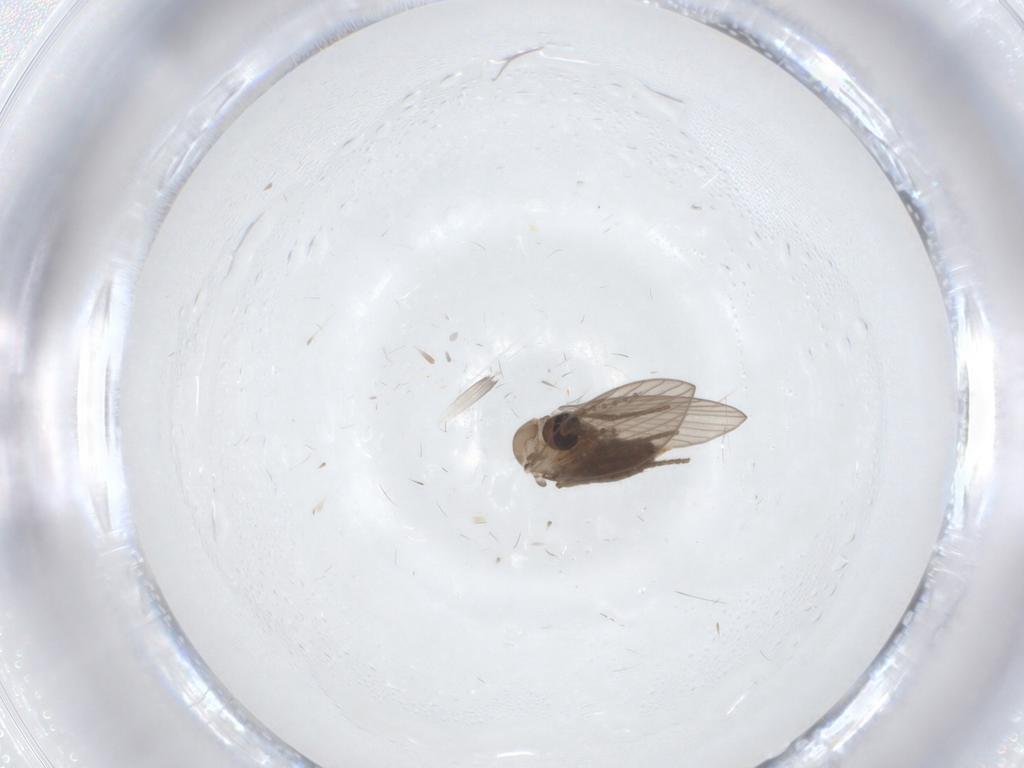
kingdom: Animalia
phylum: Arthropoda
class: Insecta
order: Diptera
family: Psychodidae
